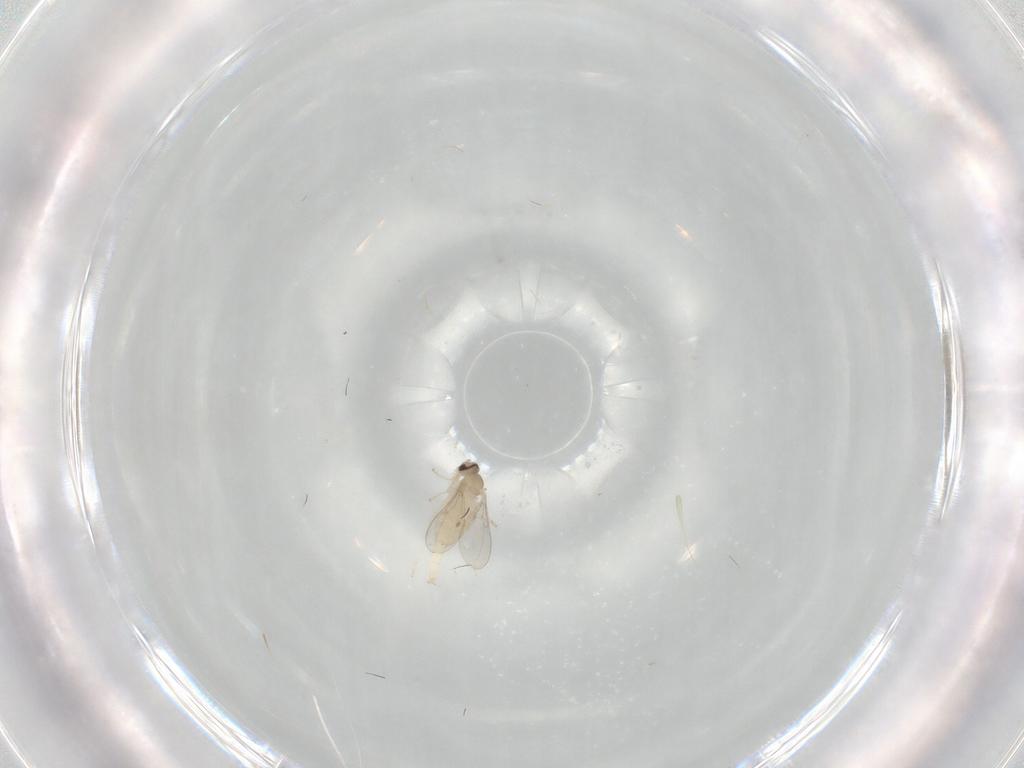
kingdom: Animalia
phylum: Arthropoda
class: Insecta
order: Diptera
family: Cecidomyiidae
